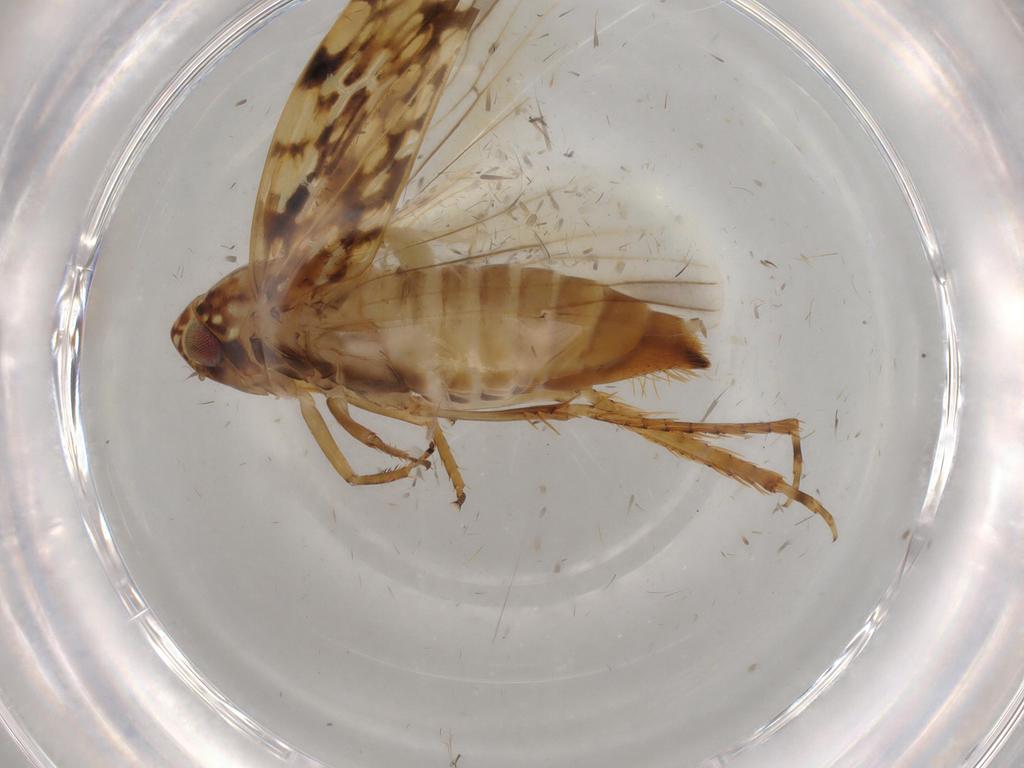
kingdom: Animalia
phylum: Arthropoda
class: Insecta
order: Hemiptera
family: Cicadellidae
